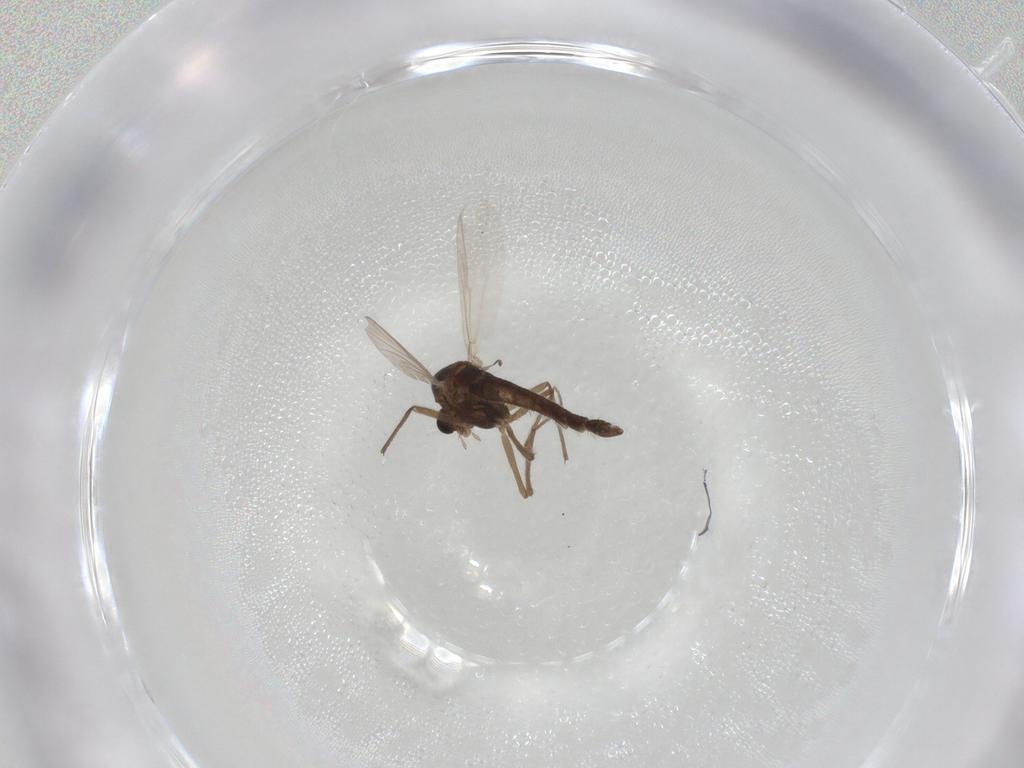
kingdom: Animalia
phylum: Arthropoda
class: Insecta
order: Diptera
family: Chironomidae
